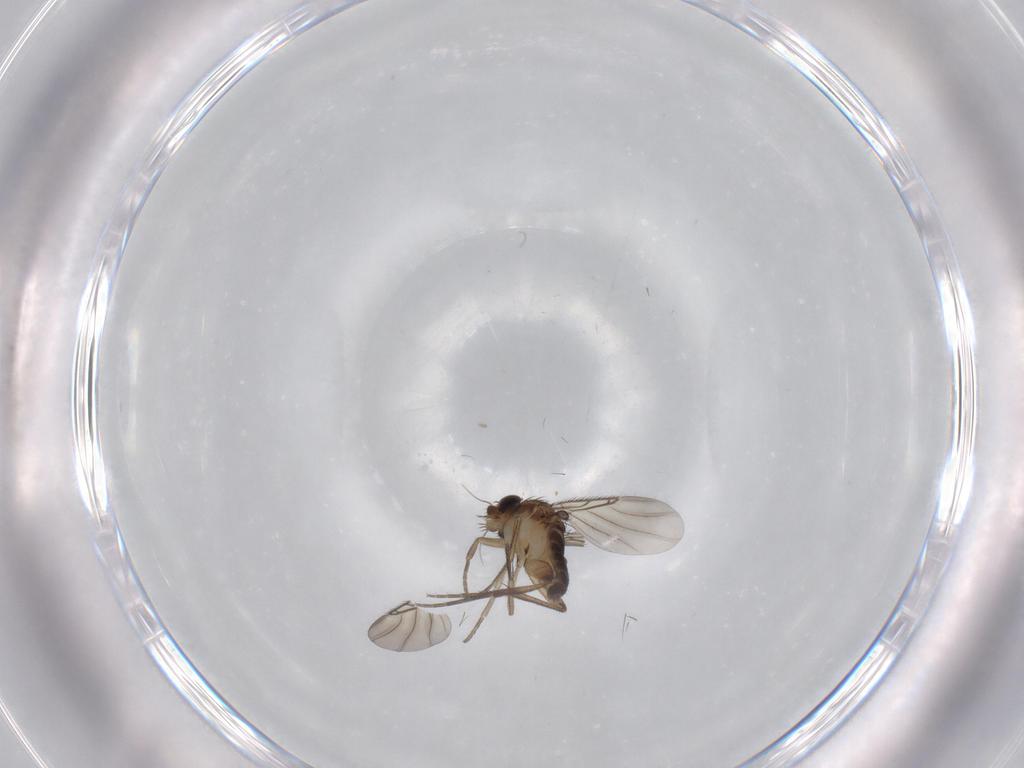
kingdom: Animalia
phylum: Arthropoda
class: Insecta
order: Diptera
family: Phoridae
